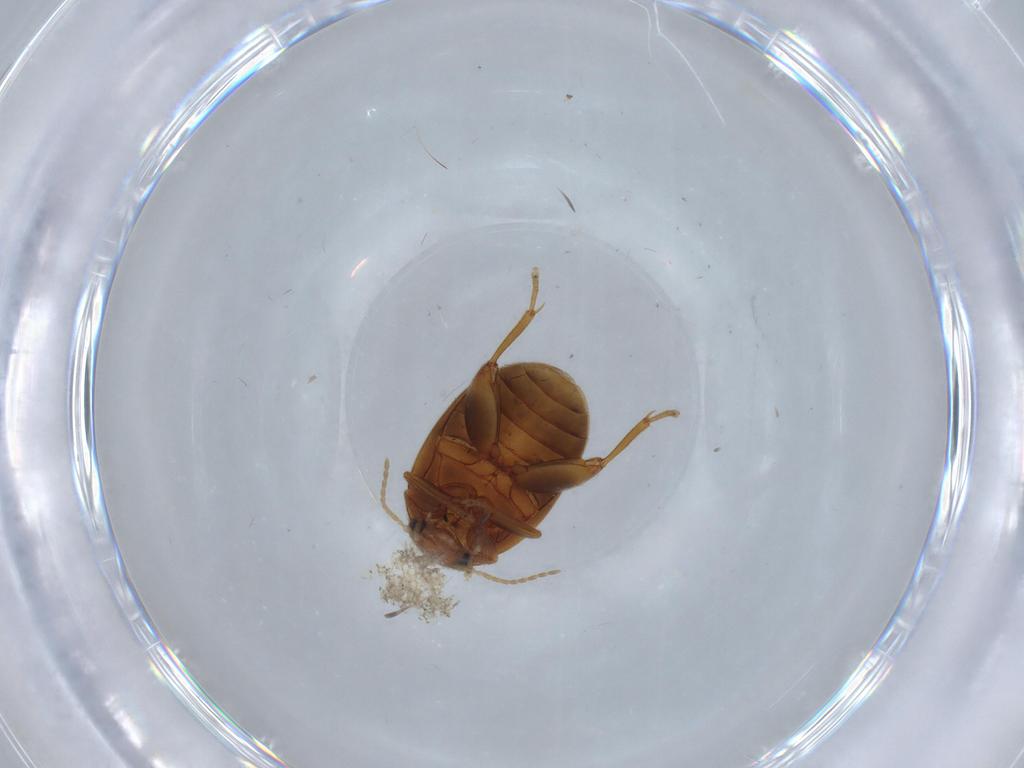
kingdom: Animalia
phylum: Arthropoda
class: Insecta
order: Coleoptera
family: Scirtidae
